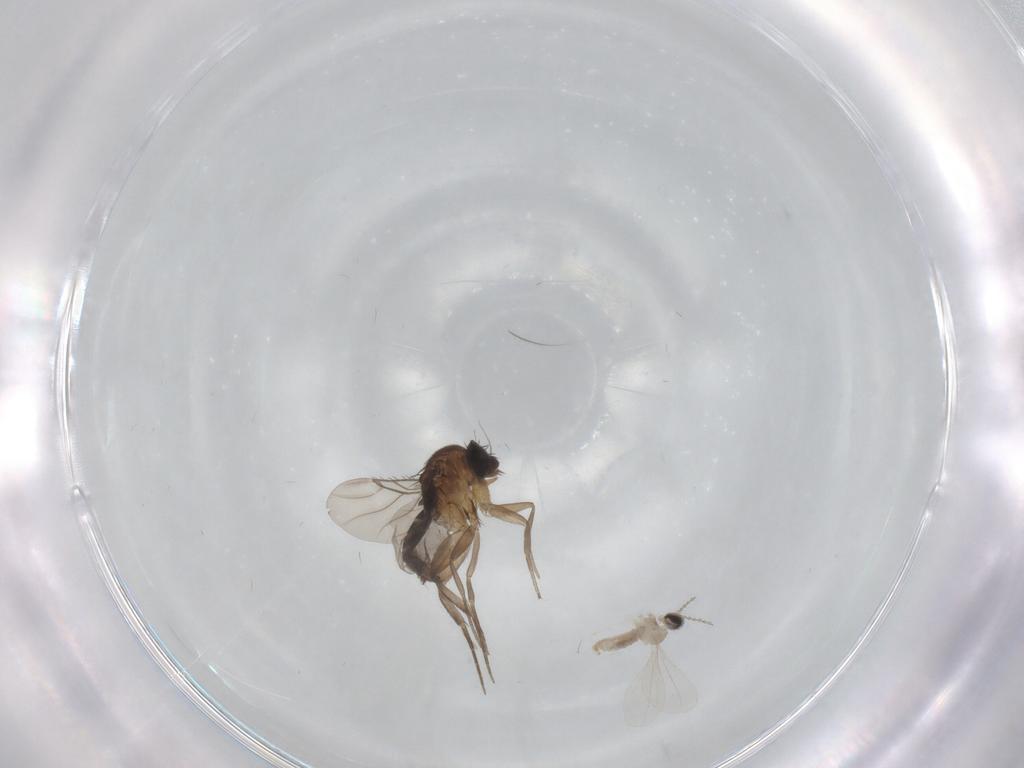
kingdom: Animalia
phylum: Arthropoda
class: Insecta
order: Diptera
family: Phoridae
